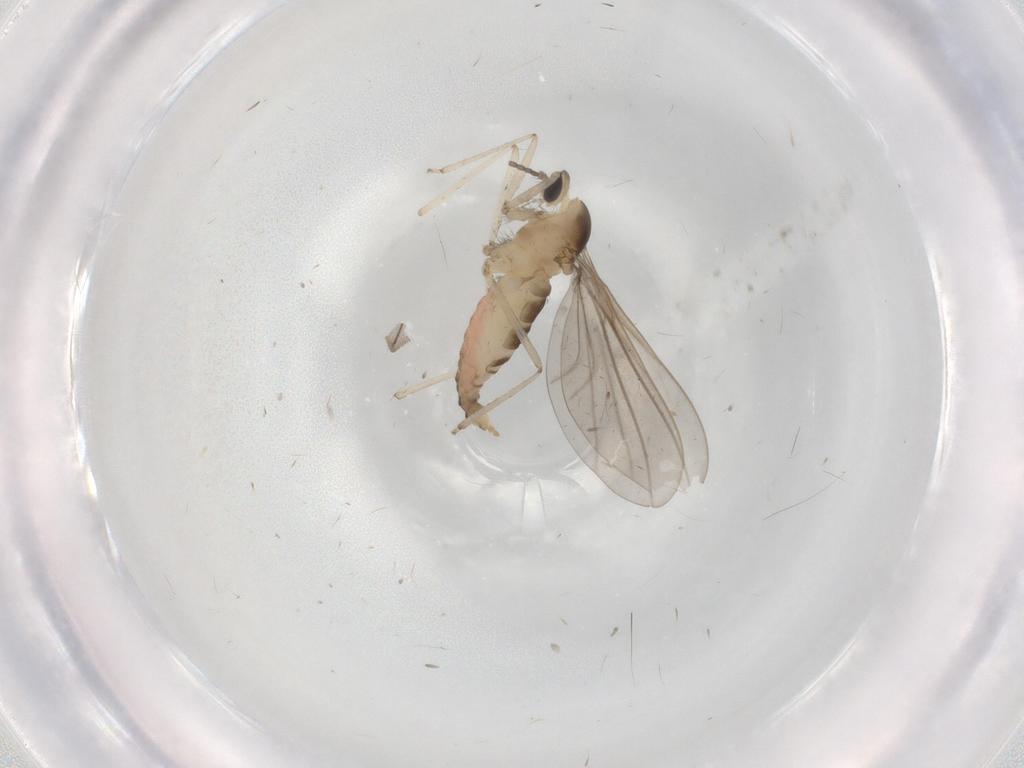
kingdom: Animalia
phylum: Arthropoda
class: Insecta
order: Diptera
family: Cecidomyiidae
